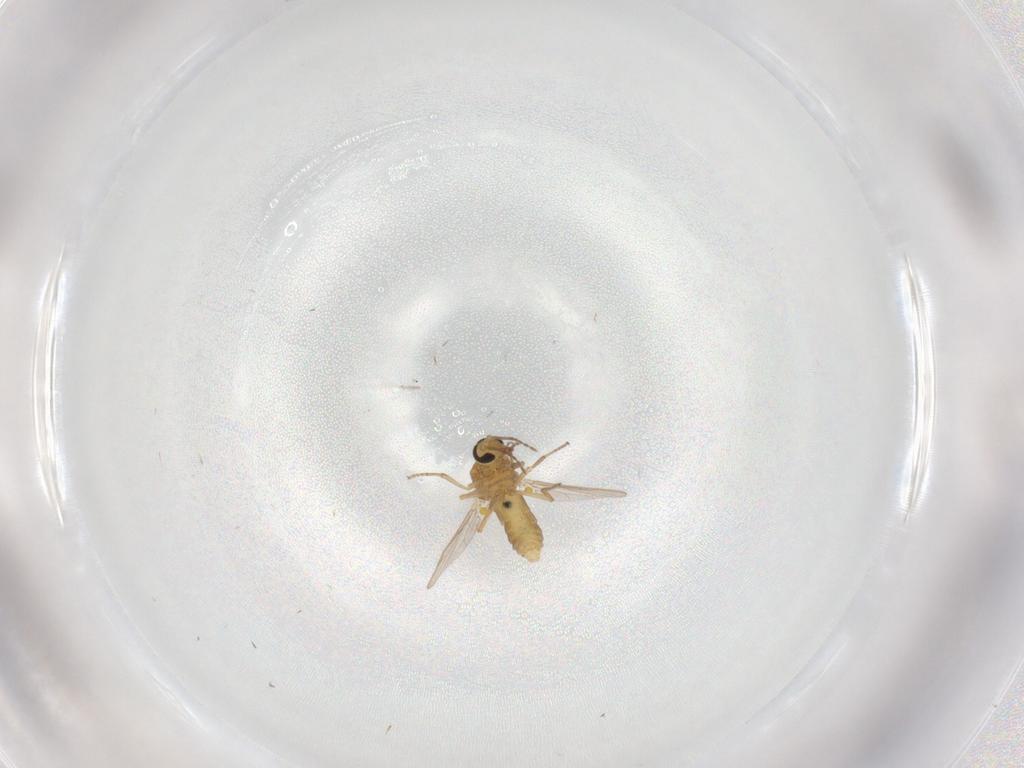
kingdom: Animalia
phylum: Arthropoda
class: Insecta
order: Diptera
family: Ceratopogonidae
